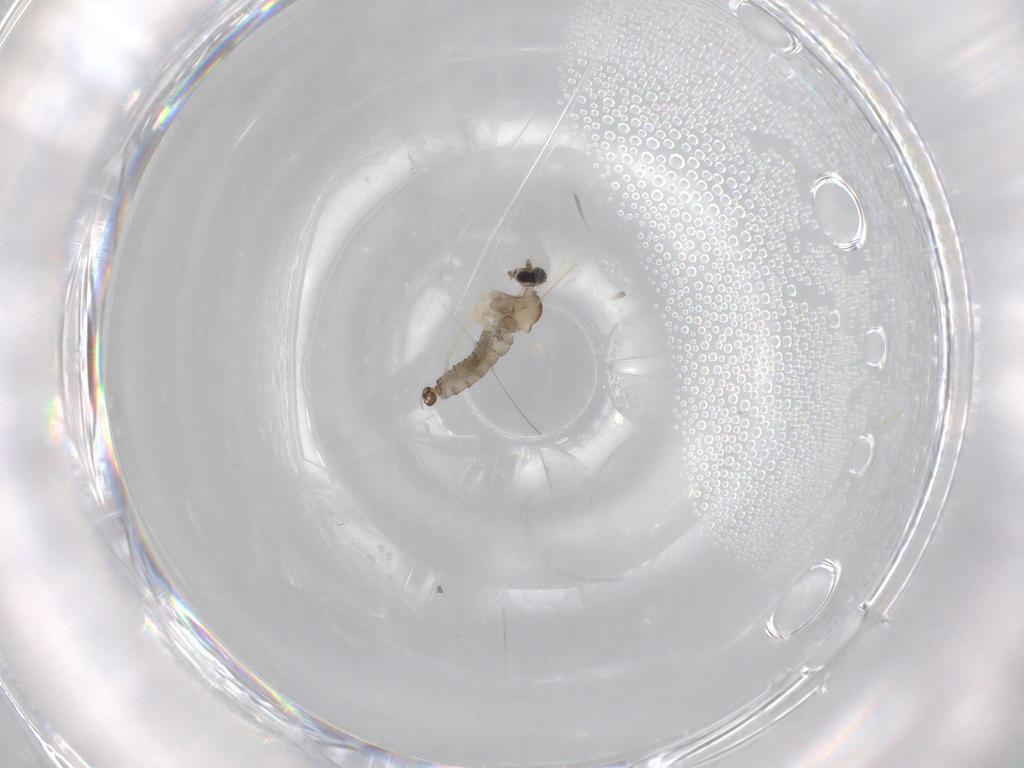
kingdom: Animalia
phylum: Arthropoda
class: Insecta
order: Diptera
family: Cecidomyiidae
